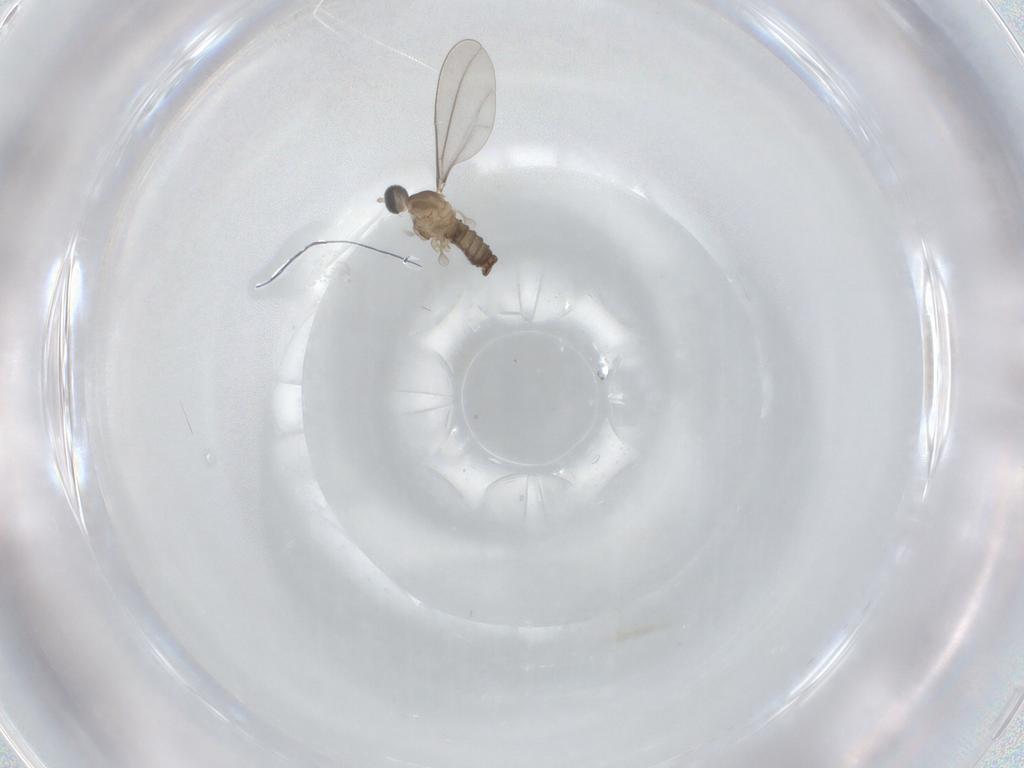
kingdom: Animalia
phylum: Arthropoda
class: Insecta
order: Diptera
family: Cecidomyiidae
